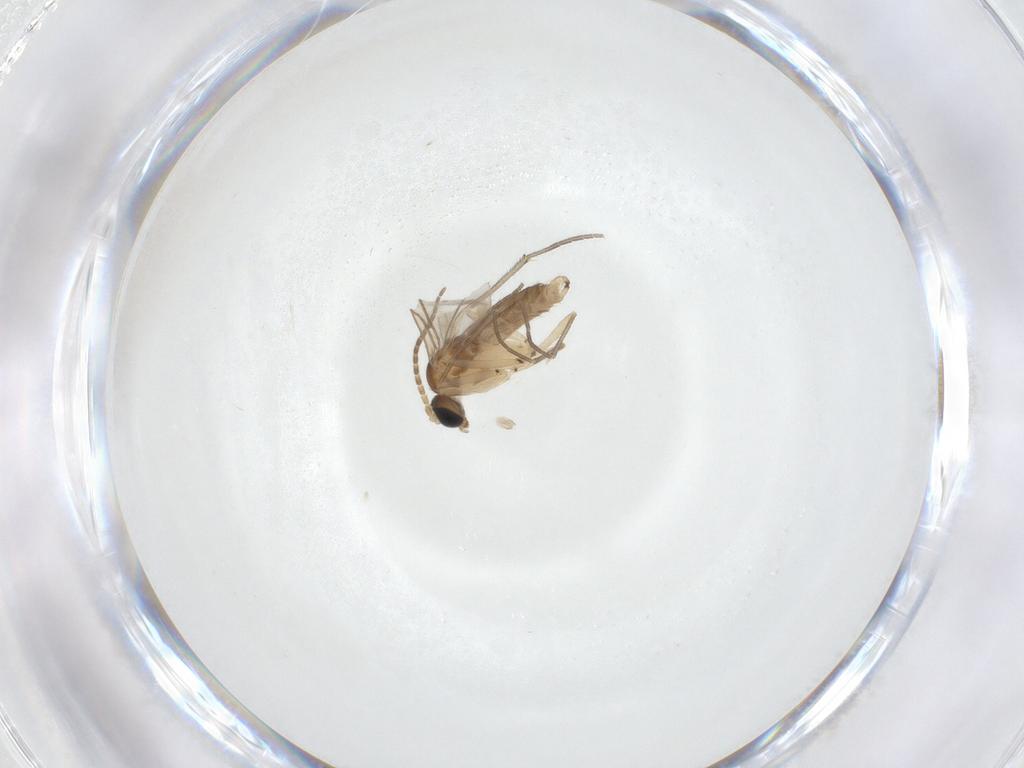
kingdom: Animalia
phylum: Arthropoda
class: Insecta
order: Diptera
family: Sciaridae
